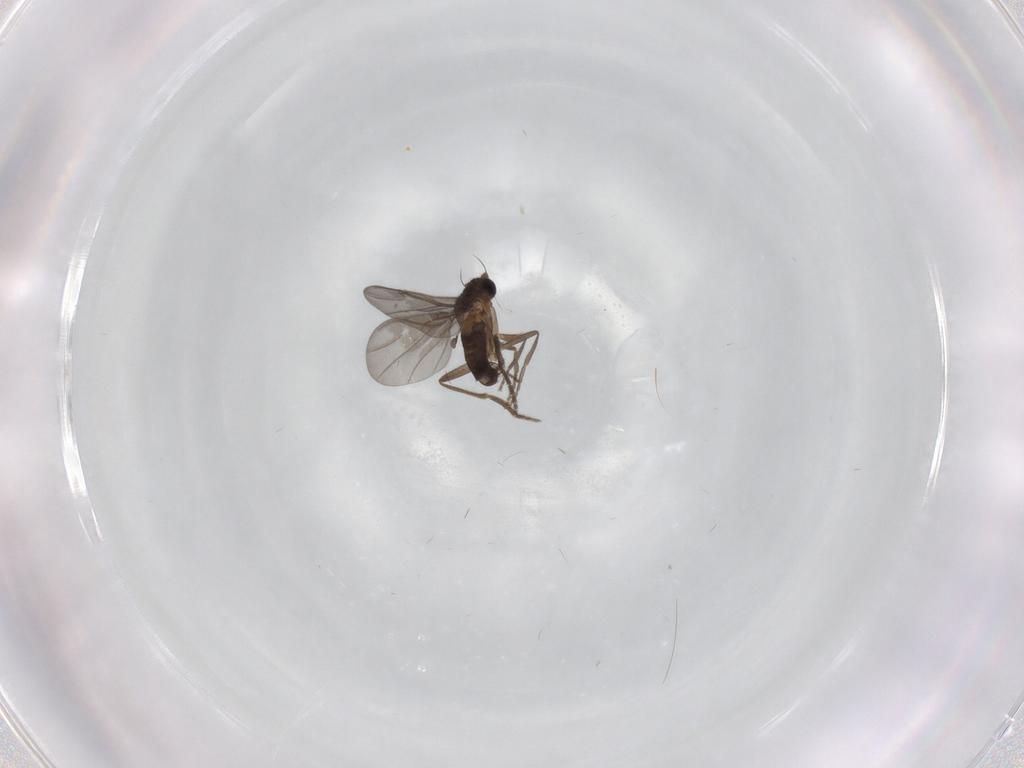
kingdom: Animalia
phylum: Arthropoda
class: Insecta
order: Diptera
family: Phoridae
